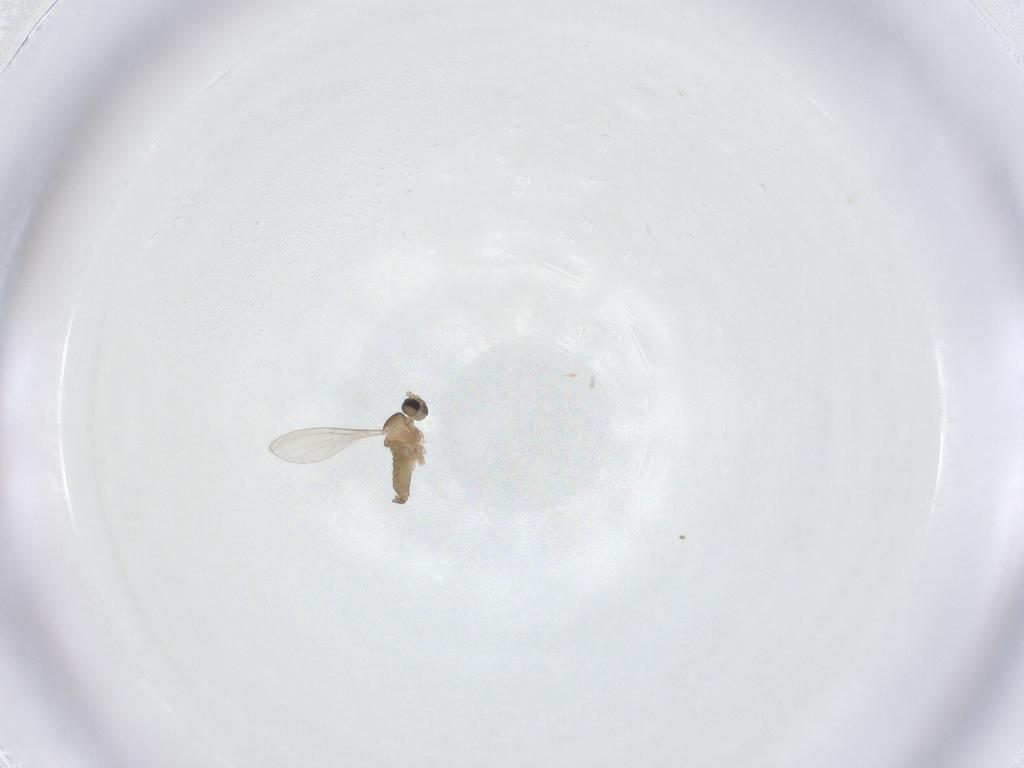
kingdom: Animalia
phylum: Arthropoda
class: Insecta
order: Diptera
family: Cecidomyiidae
